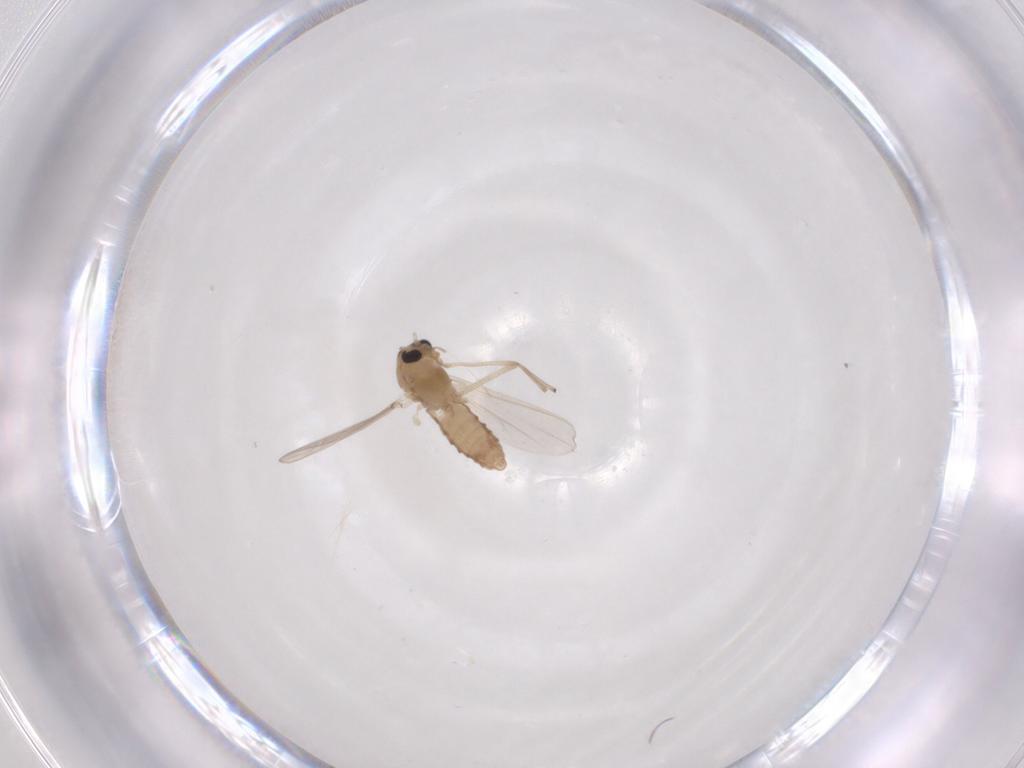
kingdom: Animalia
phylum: Arthropoda
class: Insecta
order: Diptera
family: Chironomidae
